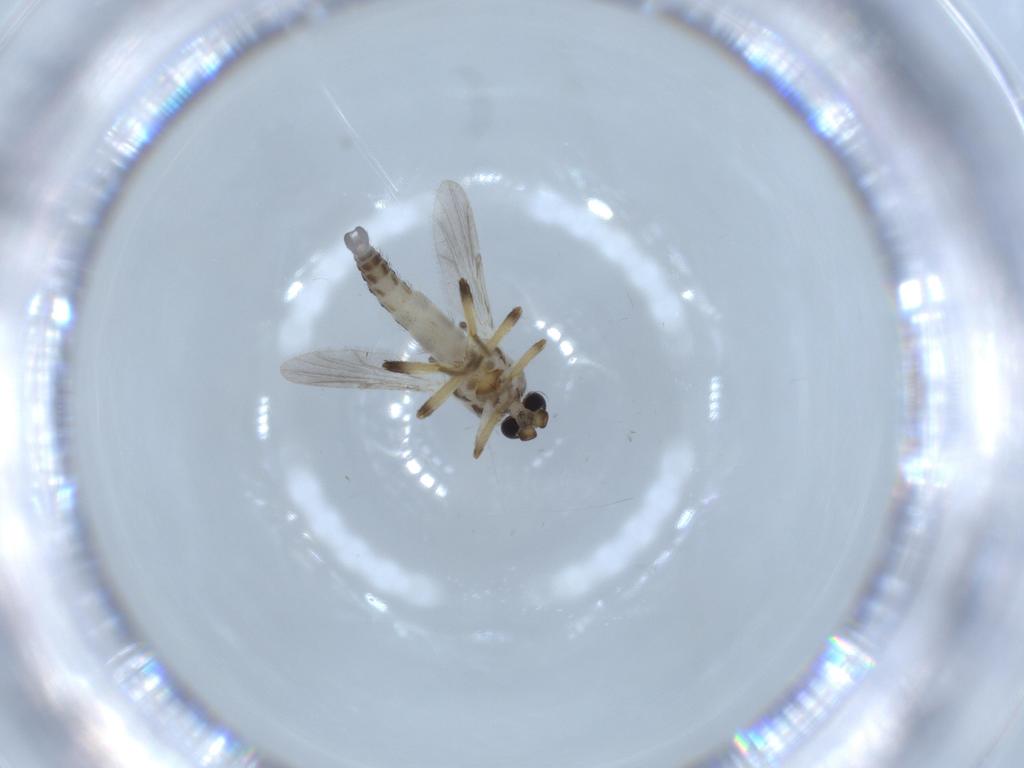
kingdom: Animalia
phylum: Arthropoda
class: Insecta
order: Diptera
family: Ceratopogonidae
